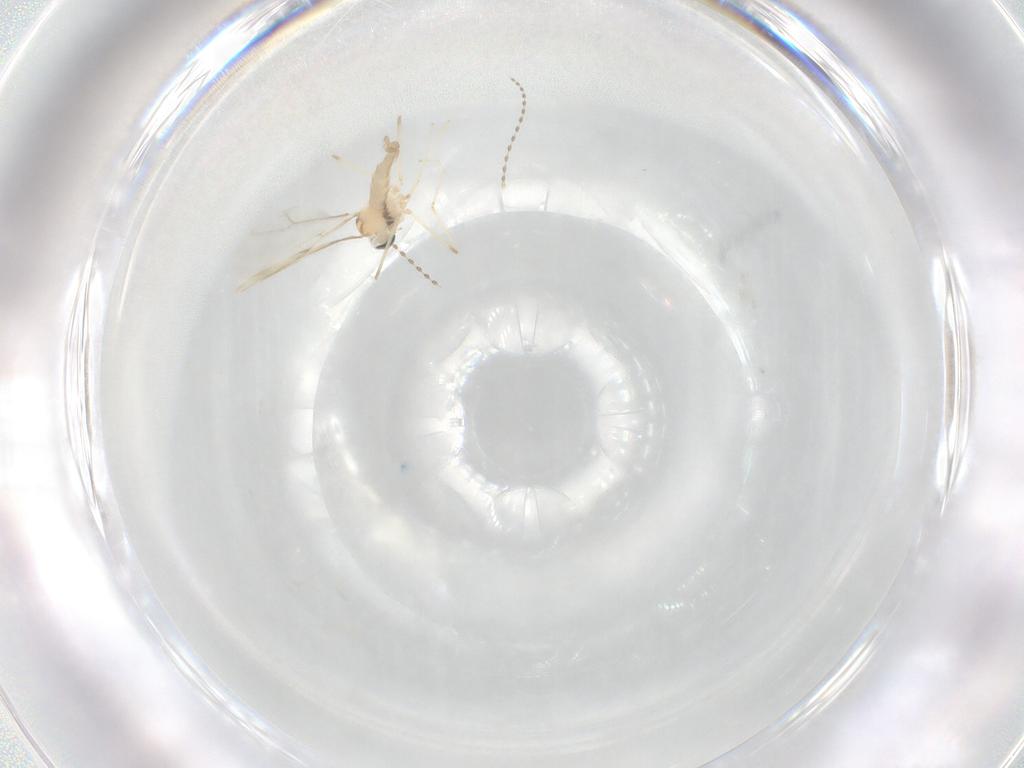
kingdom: Animalia
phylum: Arthropoda
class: Insecta
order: Diptera
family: Cecidomyiidae
